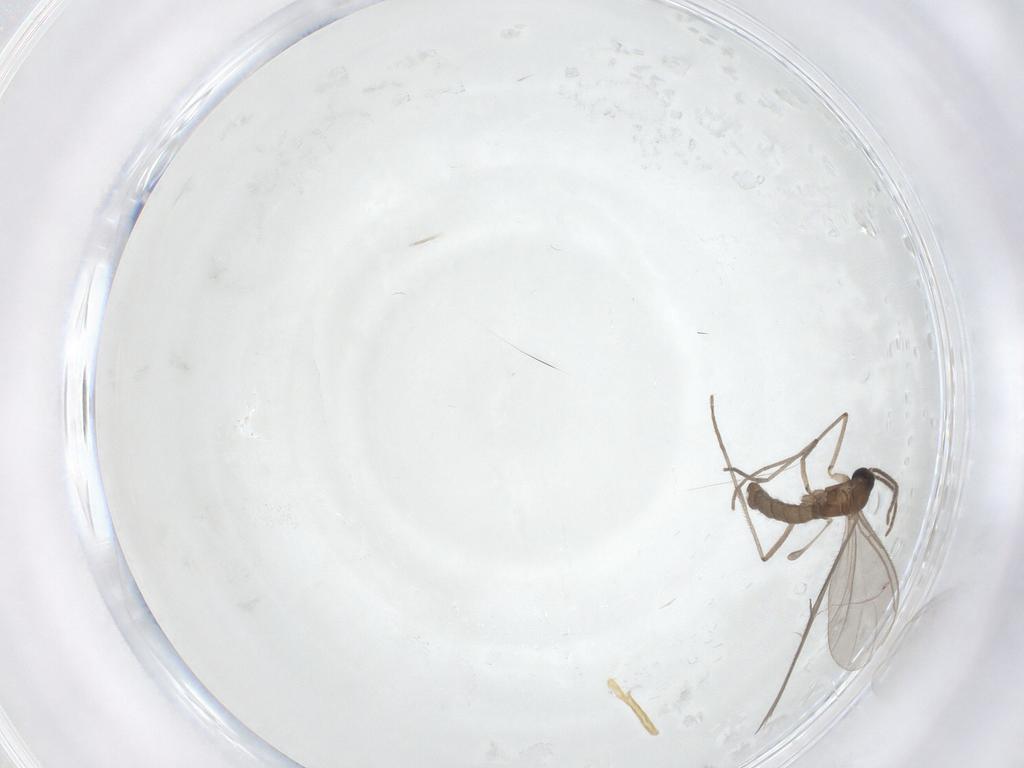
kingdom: Animalia
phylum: Arthropoda
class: Insecta
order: Diptera
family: Sciaridae
